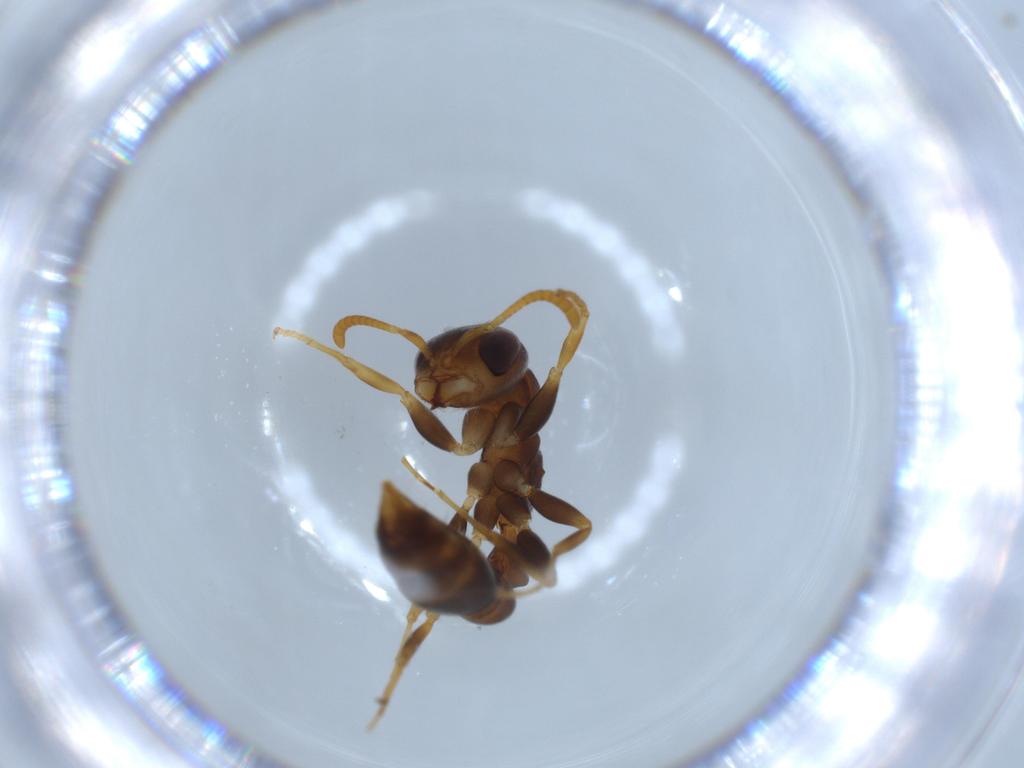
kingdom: Animalia
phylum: Arthropoda
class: Insecta
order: Hymenoptera
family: Formicidae
